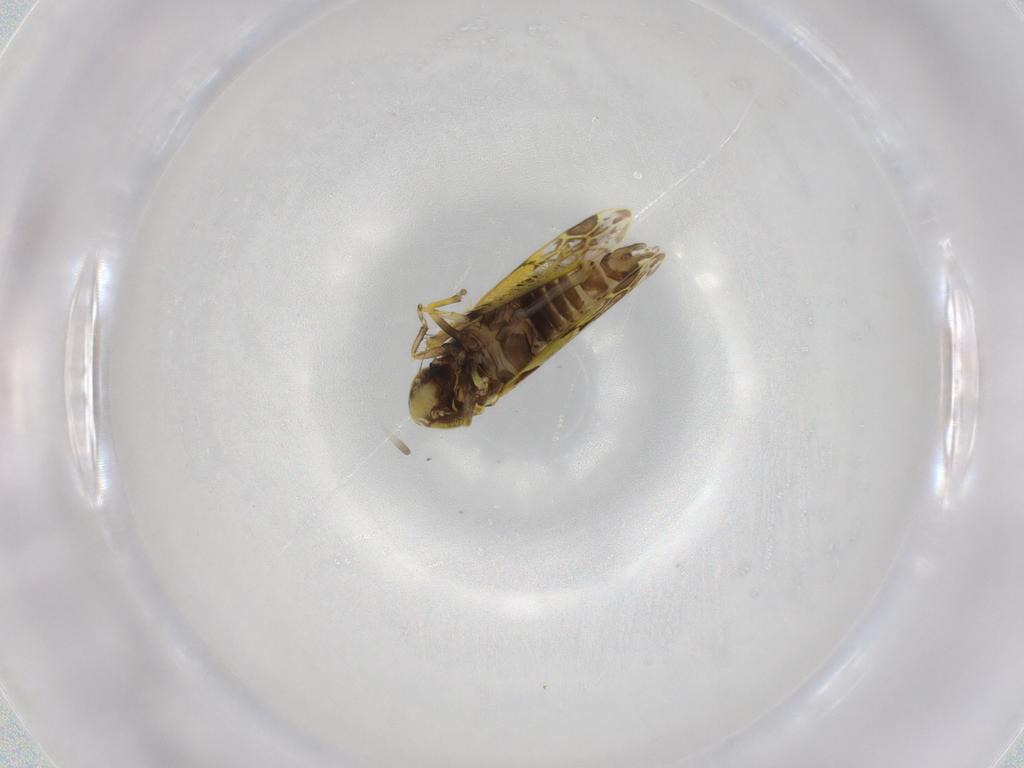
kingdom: Animalia
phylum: Arthropoda
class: Insecta
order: Hemiptera
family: Cicadellidae
